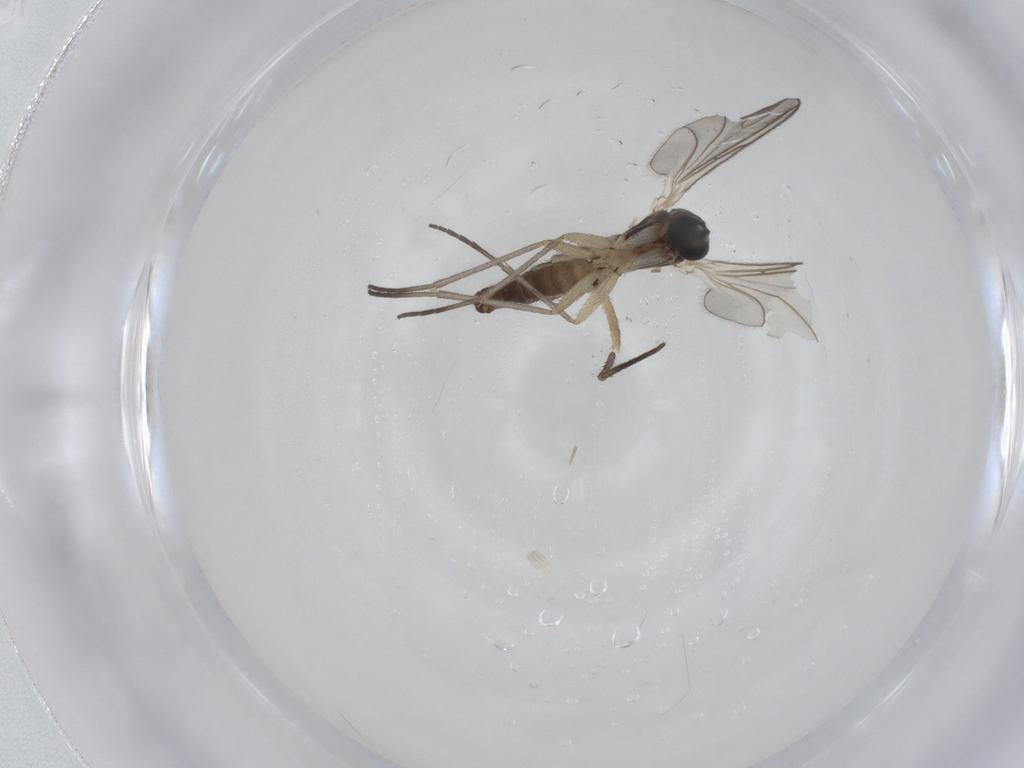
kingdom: Animalia
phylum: Arthropoda
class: Insecta
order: Diptera
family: Sciaridae
